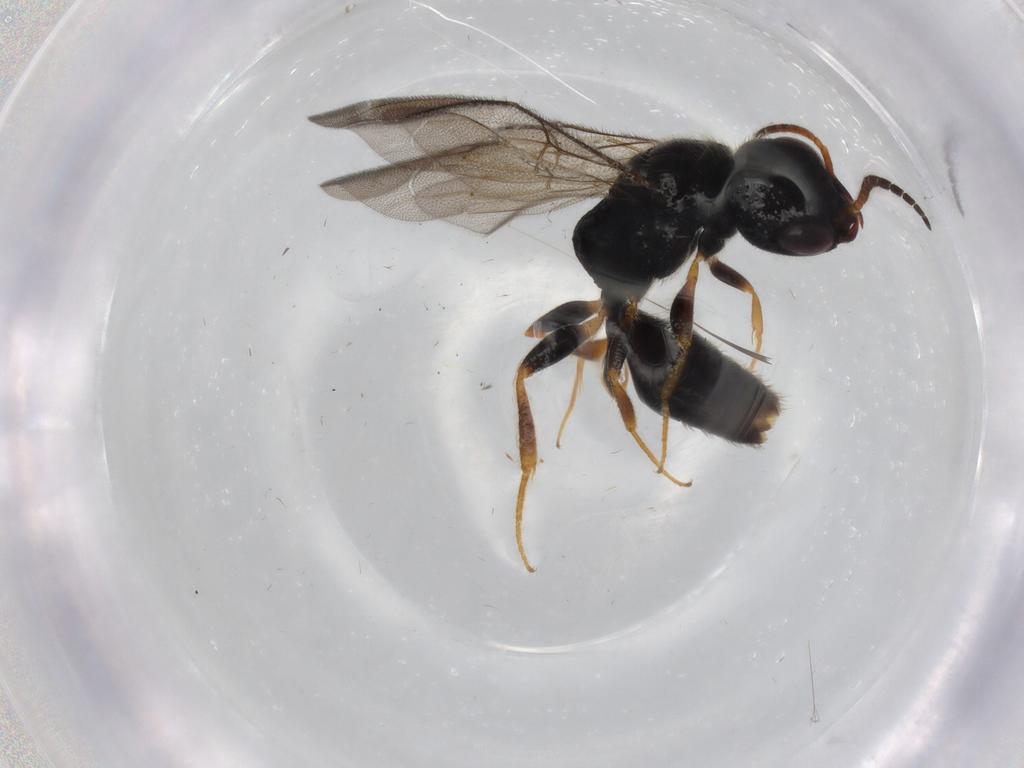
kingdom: Animalia
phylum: Arthropoda
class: Insecta
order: Hymenoptera
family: Bethylidae
